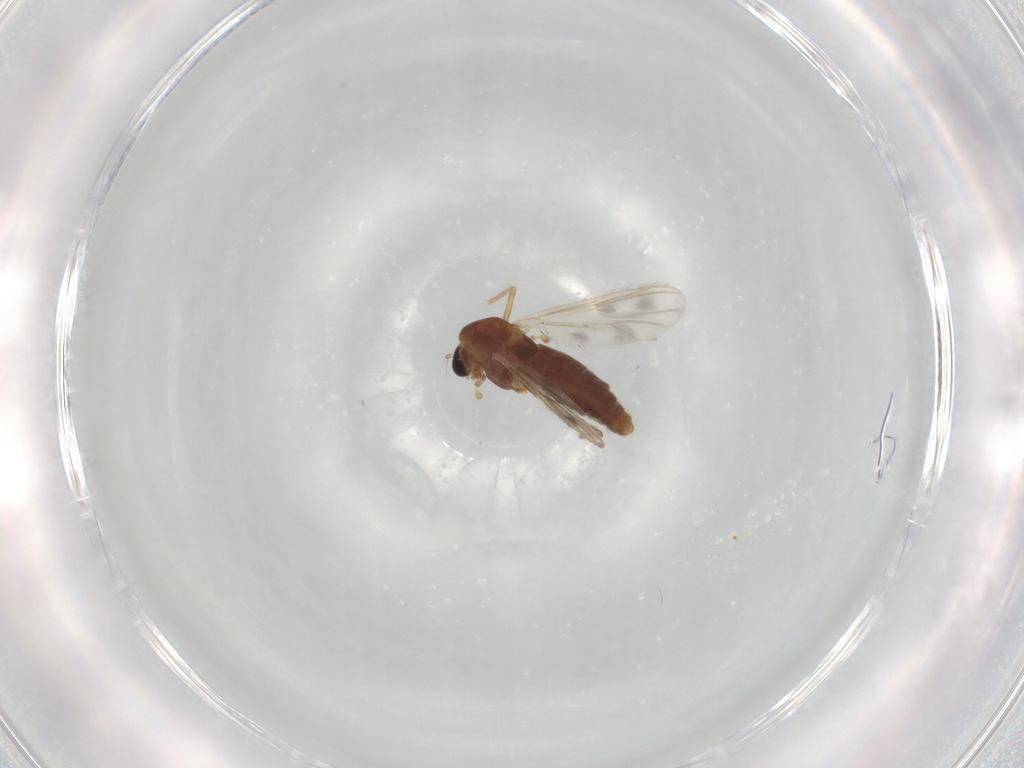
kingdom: Animalia
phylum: Arthropoda
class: Insecta
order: Diptera
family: Chironomidae
